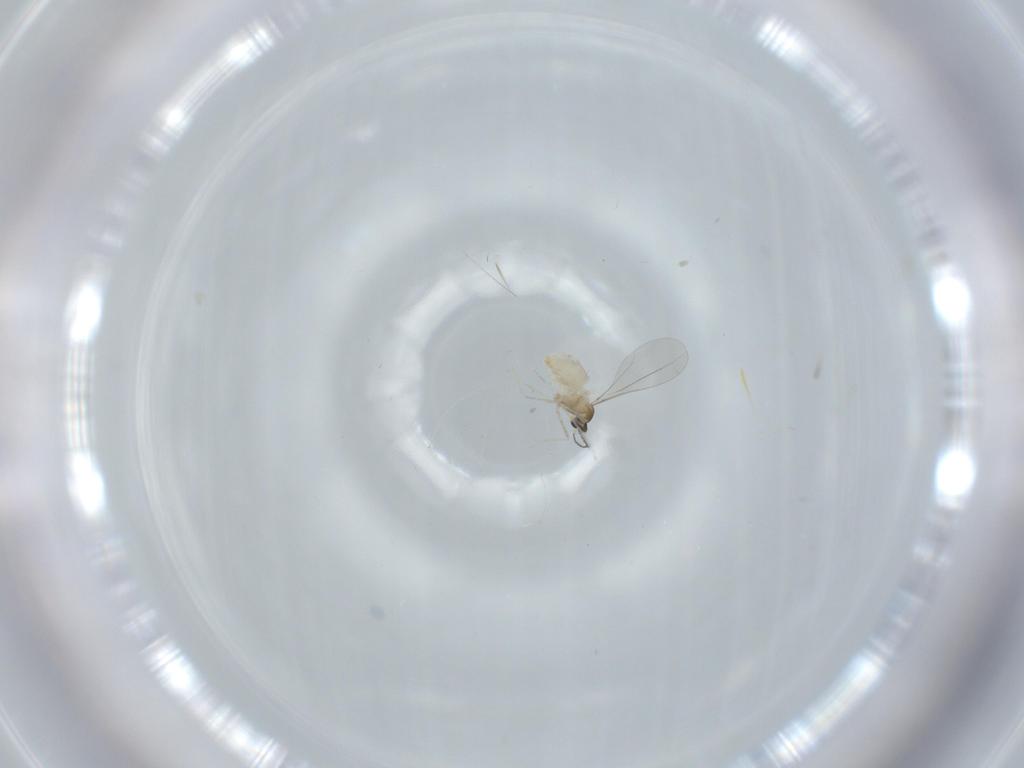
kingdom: Animalia
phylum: Arthropoda
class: Insecta
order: Diptera
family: Cecidomyiidae
